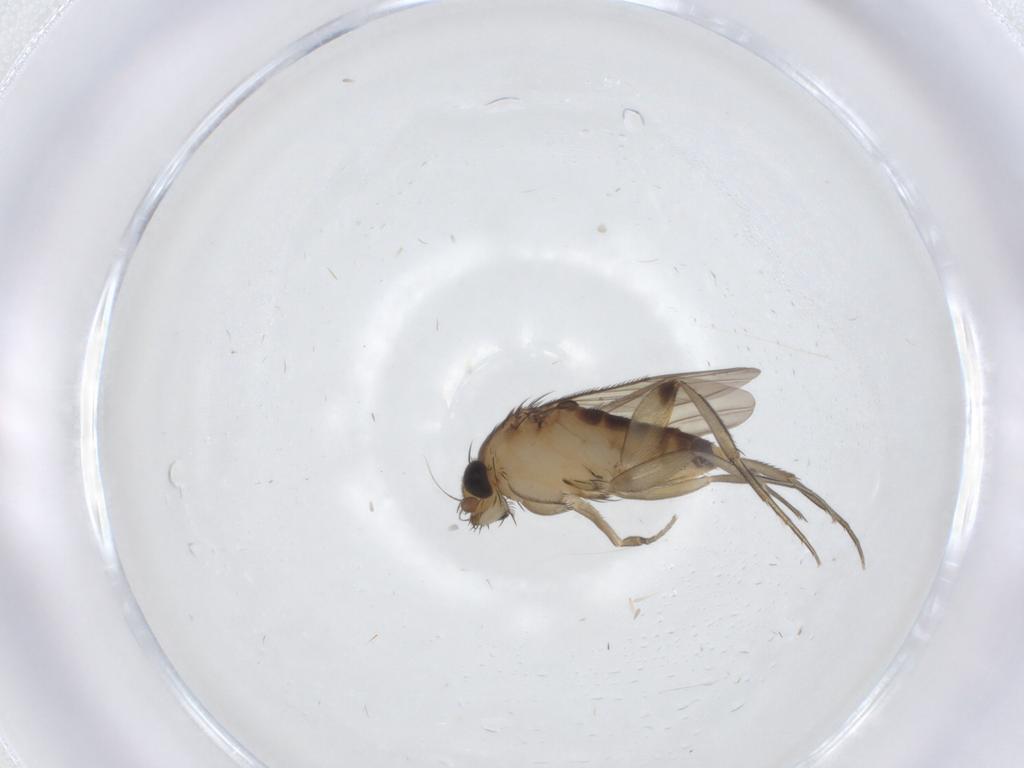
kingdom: Animalia
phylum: Arthropoda
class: Insecta
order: Diptera
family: Phoridae
